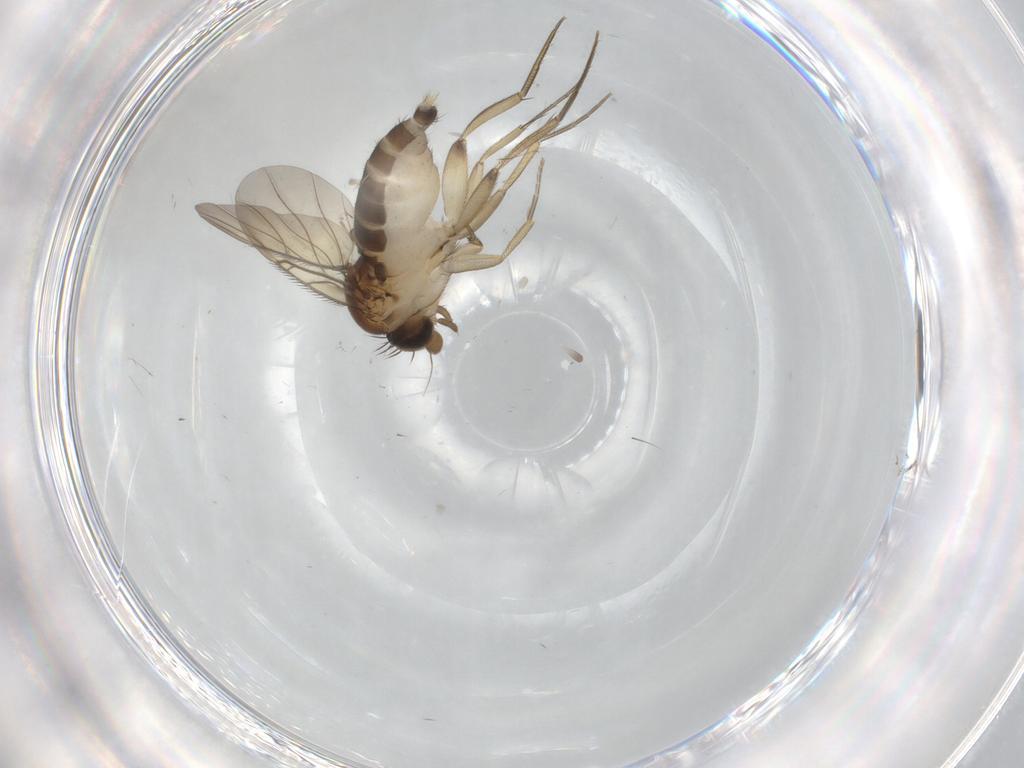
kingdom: Animalia
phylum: Arthropoda
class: Insecta
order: Diptera
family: Phoridae
